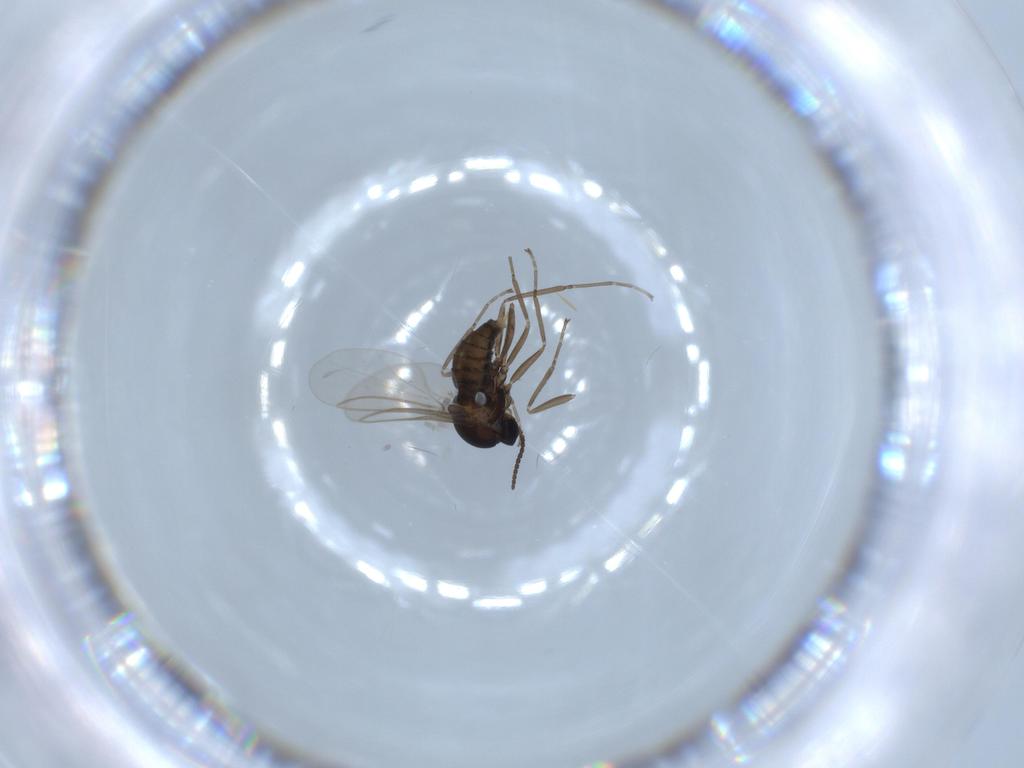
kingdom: Animalia
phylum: Arthropoda
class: Insecta
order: Diptera
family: Cecidomyiidae
